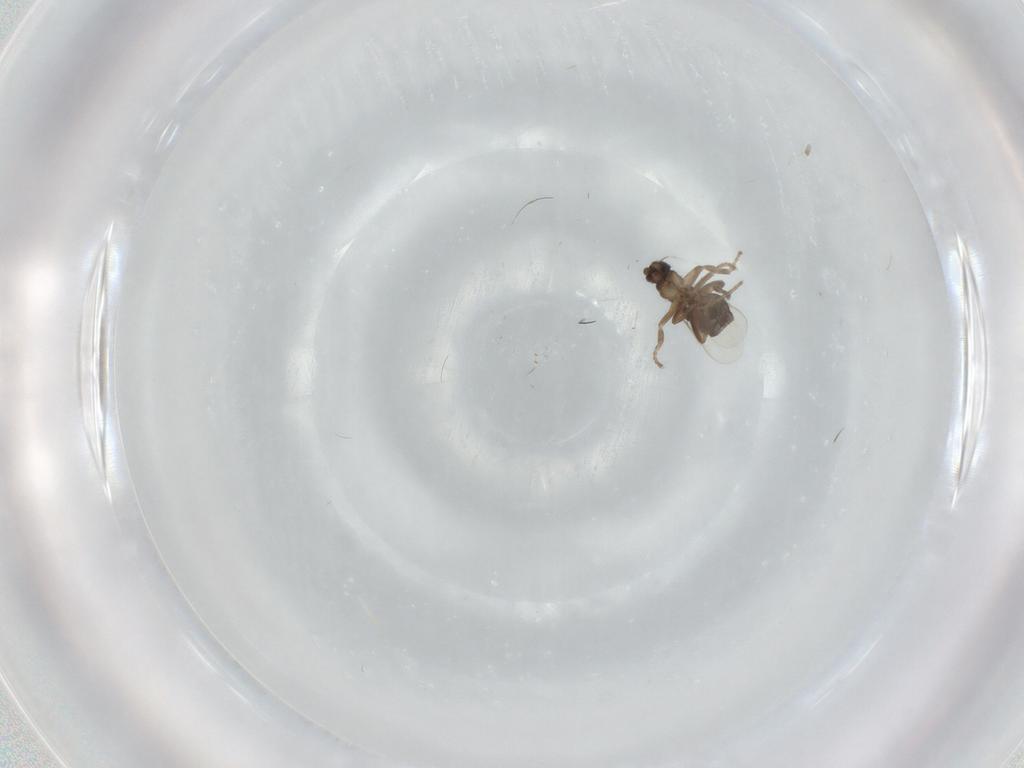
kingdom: Animalia
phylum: Arthropoda
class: Insecta
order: Diptera
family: Phoridae
